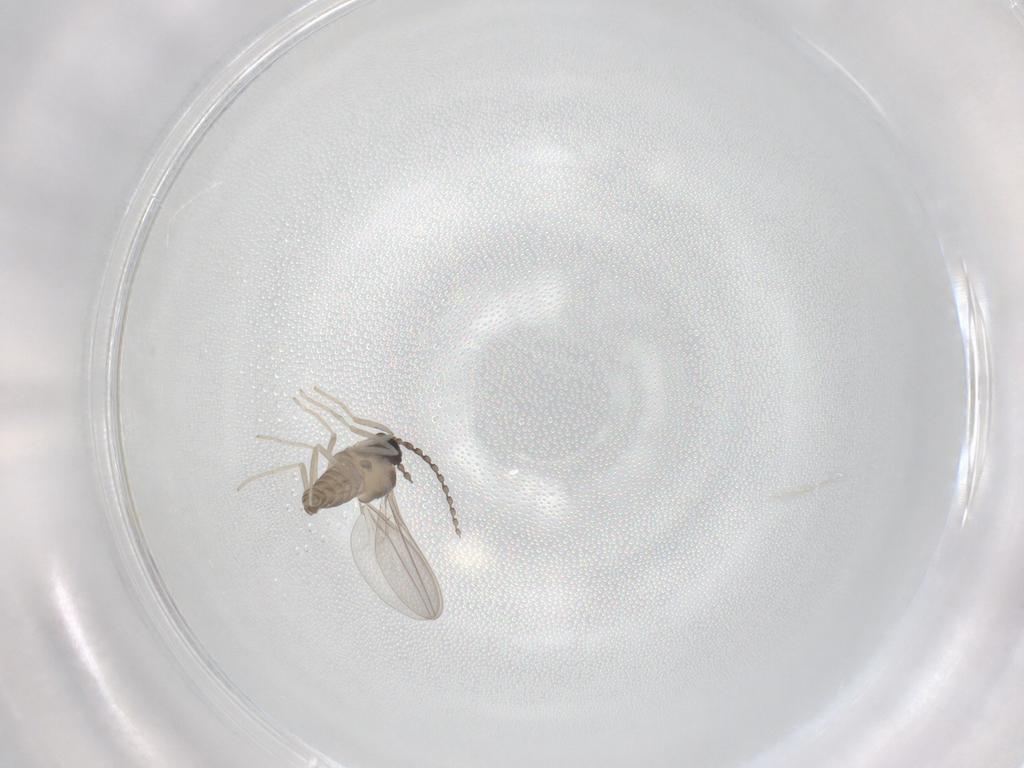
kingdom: Animalia
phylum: Arthropoda
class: Insecta
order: Diptera
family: Cecidomyiidae
